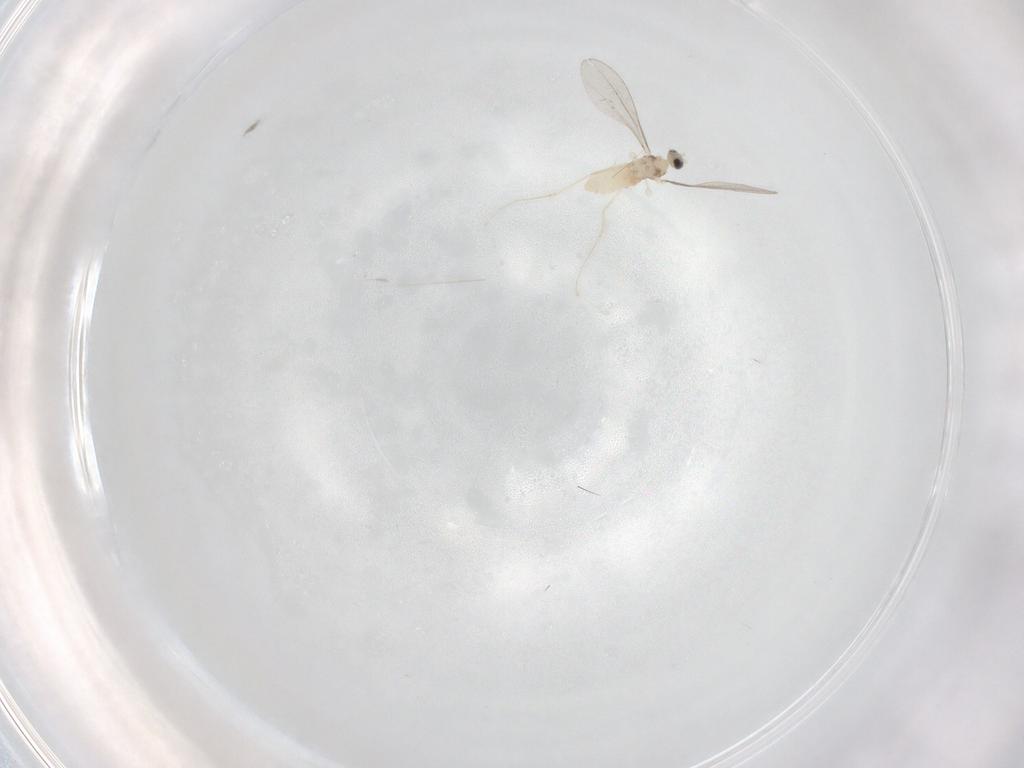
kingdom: Animalia
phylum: Arthropoda
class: Insecta
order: Diptera
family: Cecidomyiidae
